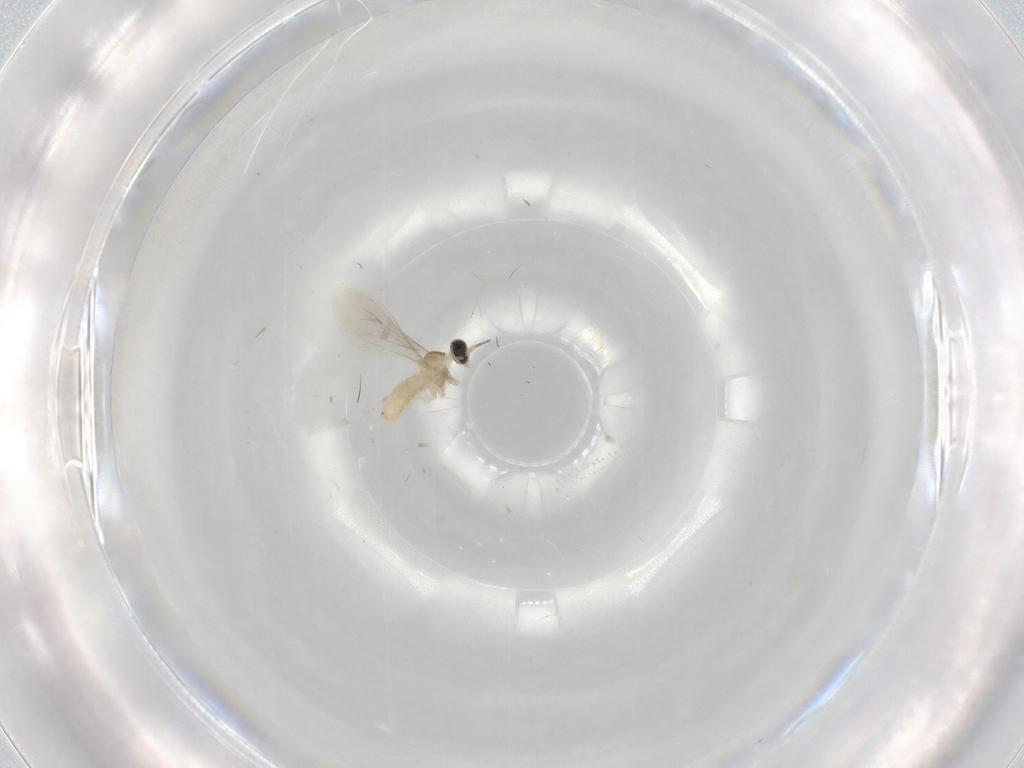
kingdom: Animalia
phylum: Arthropoda
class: Insecta
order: Diptera
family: Cecidomyiidae
